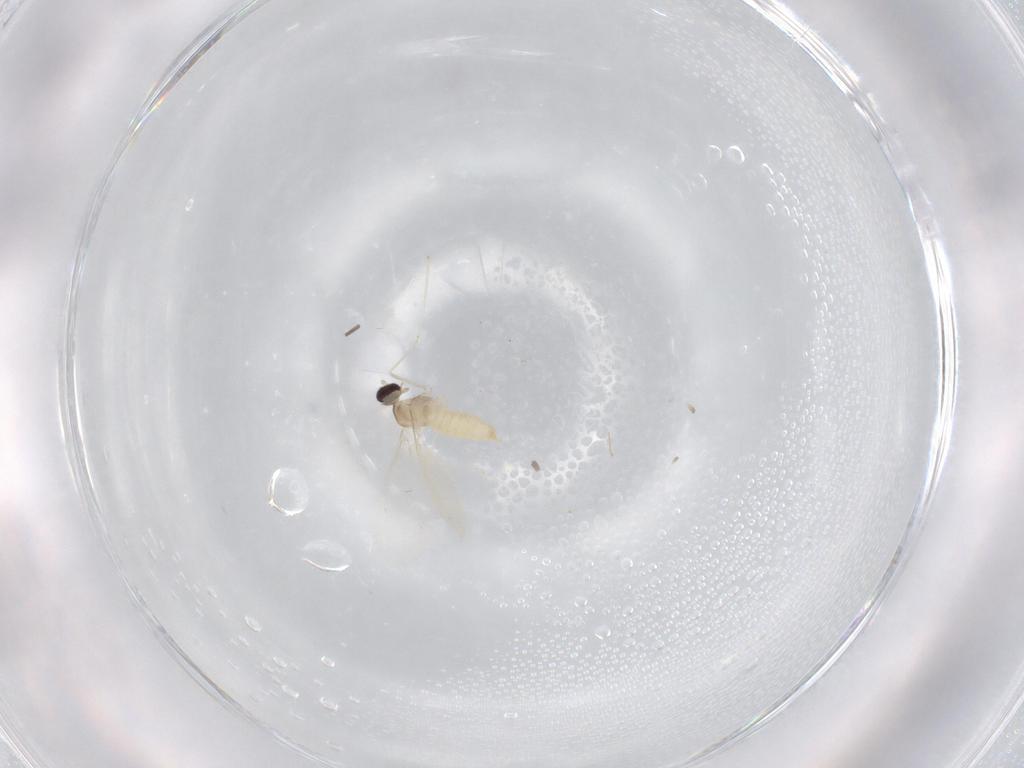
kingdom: Animalia
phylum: Arthropoda
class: Insecta
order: Diptera
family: Cecidomyiidae
